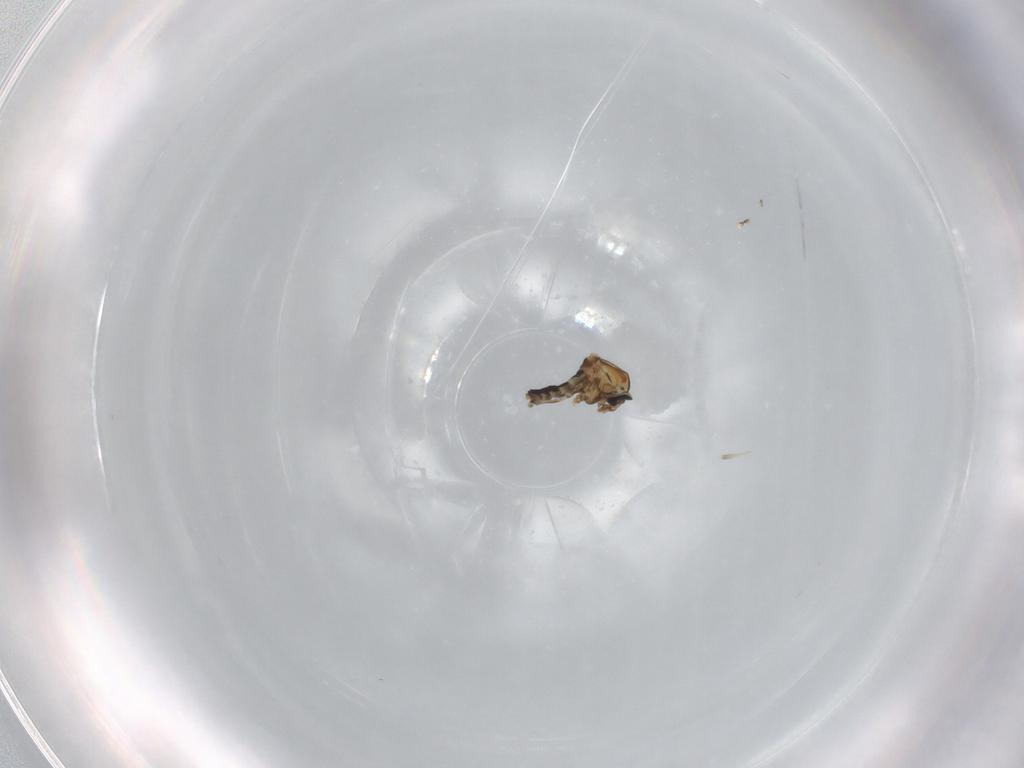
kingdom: Animalia
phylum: Arthropoda
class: Insecta
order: Diptera
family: Ceratopogonidae
